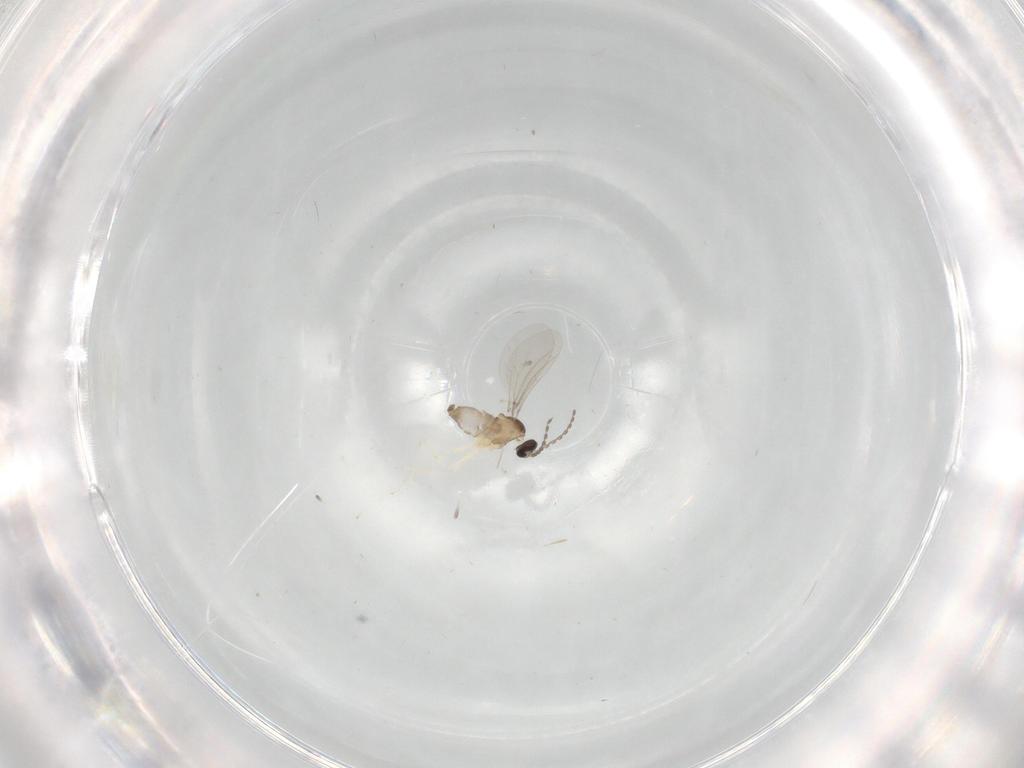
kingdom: Animalia
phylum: Arthropoda
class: Insecta
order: Diptera
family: Cecidomyiidae
